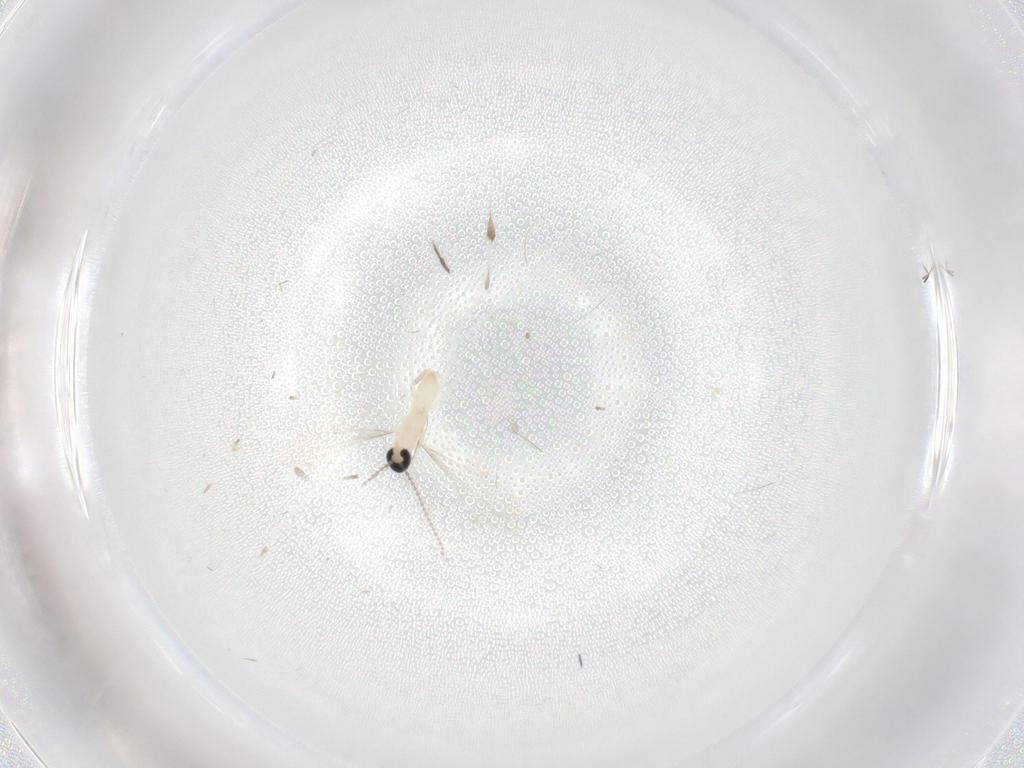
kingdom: Animalia
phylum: Arthropoda
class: Insecta
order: Diptera
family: Cecidomyiidae
